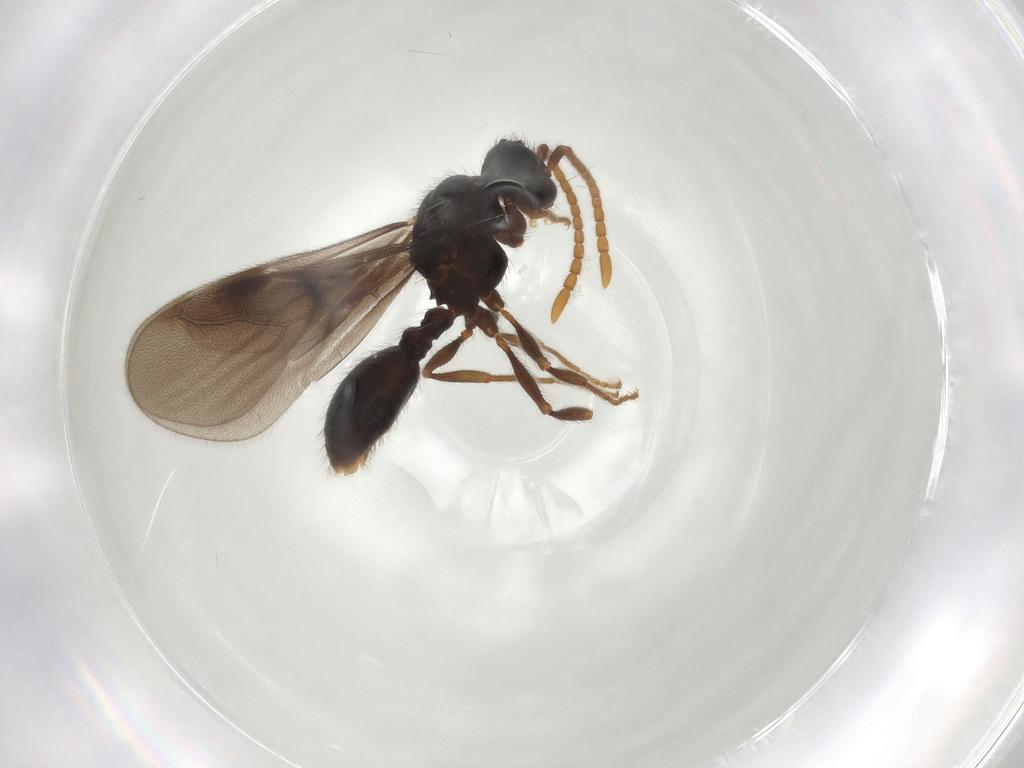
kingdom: Animalia
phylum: Arthropoda
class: Insecta
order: Hymenoptera
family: Formicidae
